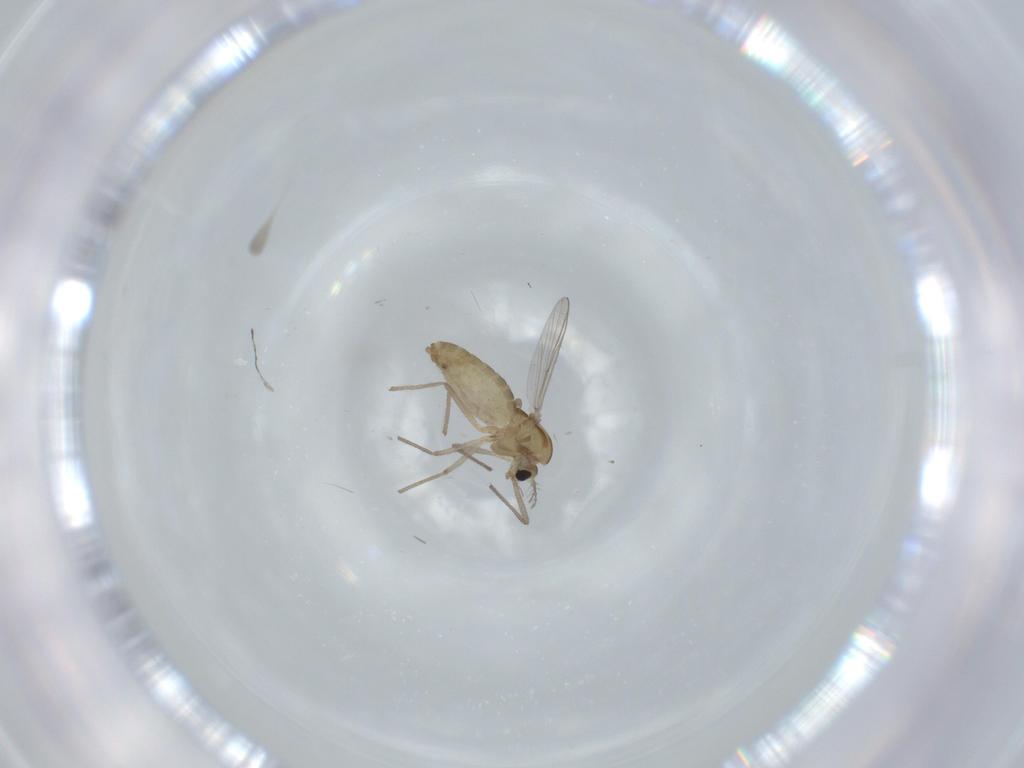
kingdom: Animalia
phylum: Arthropoda
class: Insecta
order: Diptera
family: Chironomidae
